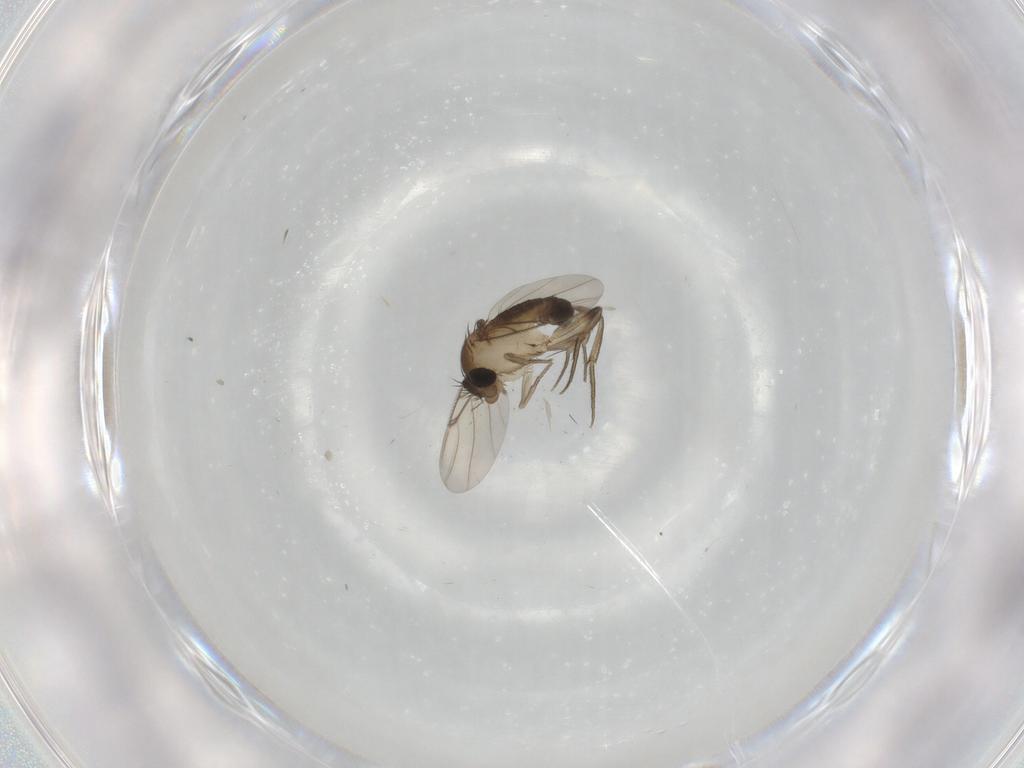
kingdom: Animalia
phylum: Arthropoda
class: Insecta
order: Diptera
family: Phoridae
